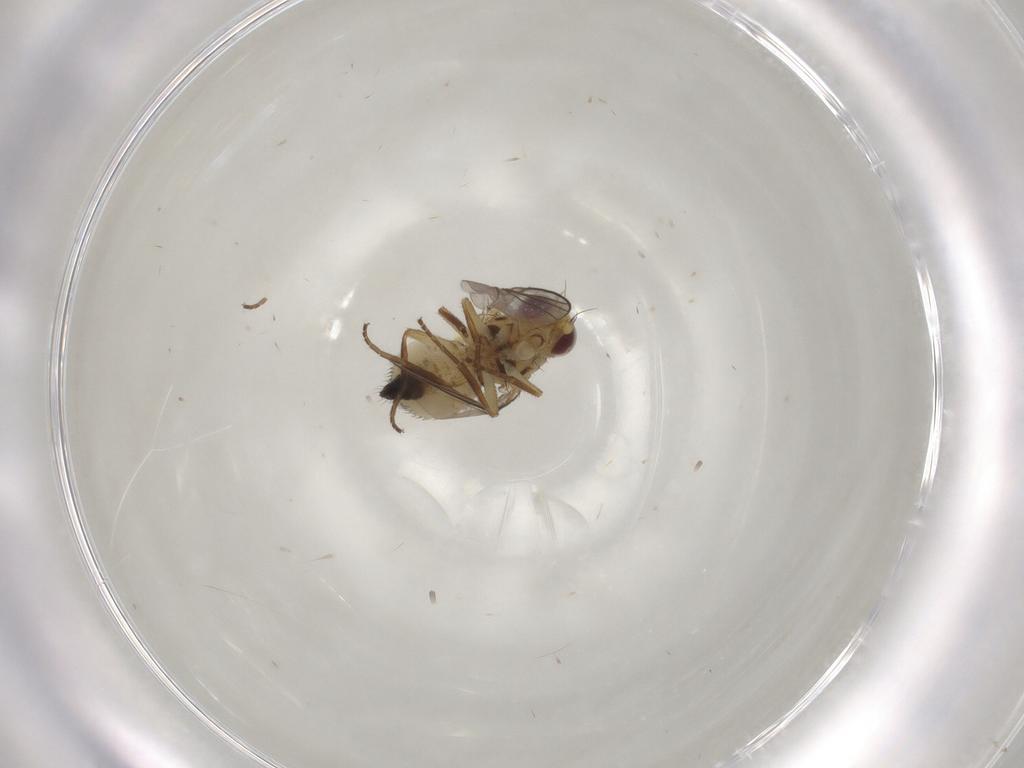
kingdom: Animalia
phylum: Arthropoda
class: Insecta
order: Diptera
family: Agromyzidae
